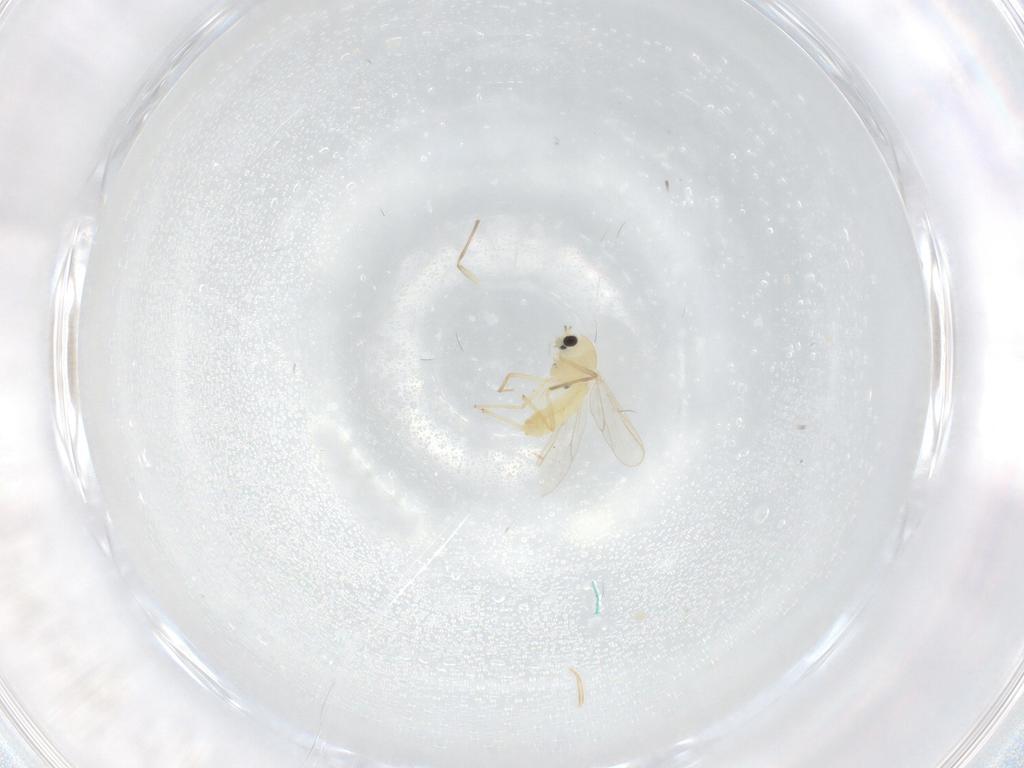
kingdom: Animalia
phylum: Arthropoda
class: Insecta
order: Diptera
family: Chironomidae
